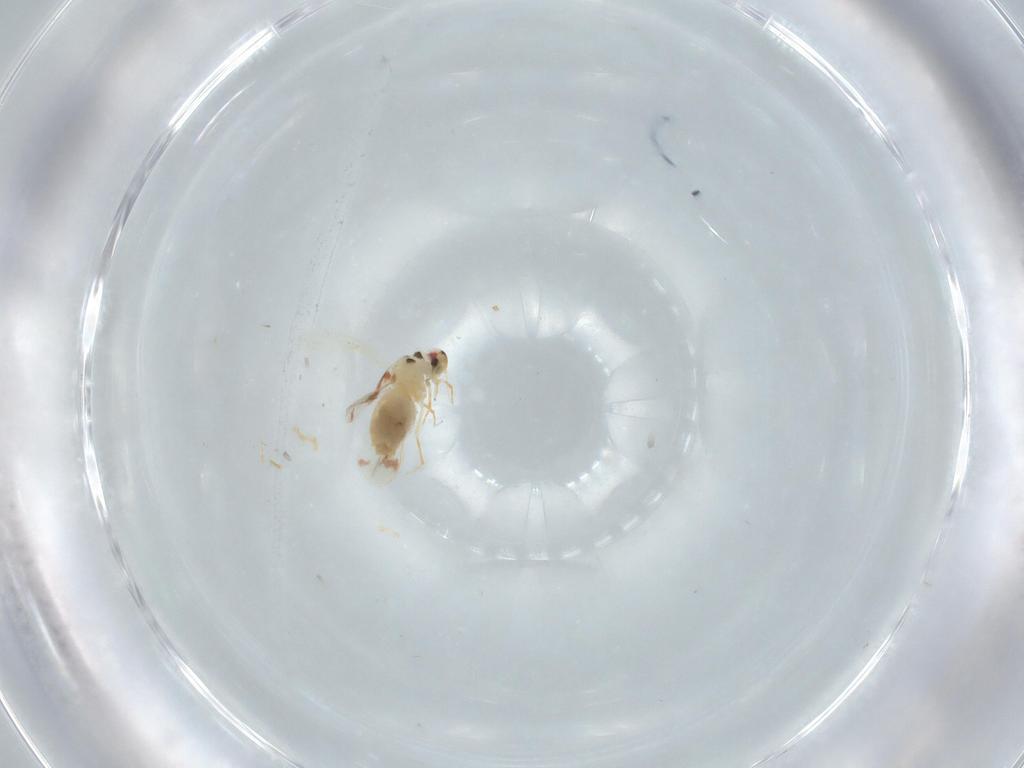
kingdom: Animalia
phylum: Arthropoda
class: Insecta
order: Hemiptera
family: Aleyrodidae
